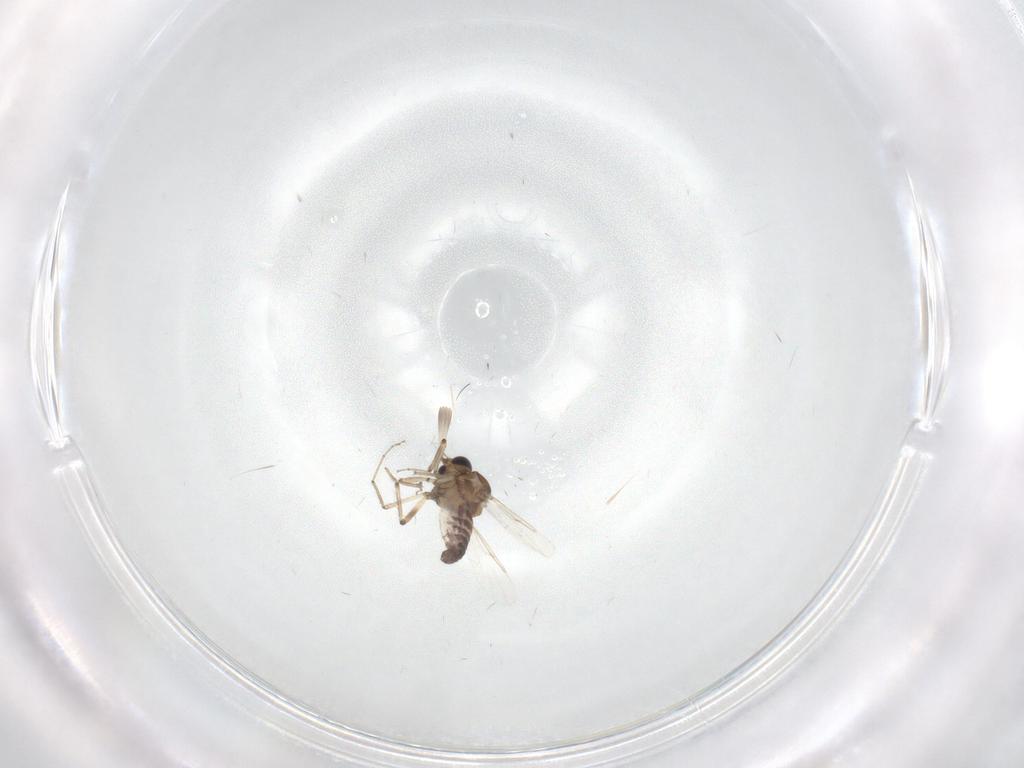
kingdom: Animalia
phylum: Arthropoda
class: Insecta
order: Diptera
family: Ceratopogonidae
